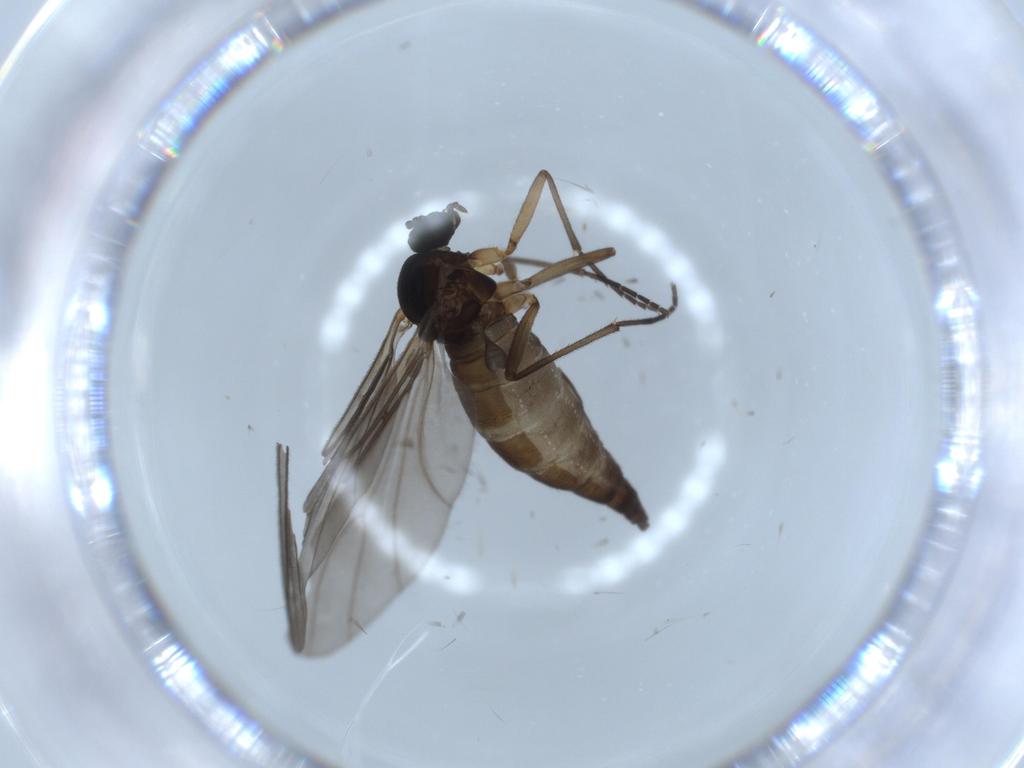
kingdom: Animalia
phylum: Arthropoda
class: Insecta
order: Diptera
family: Sciaridae
